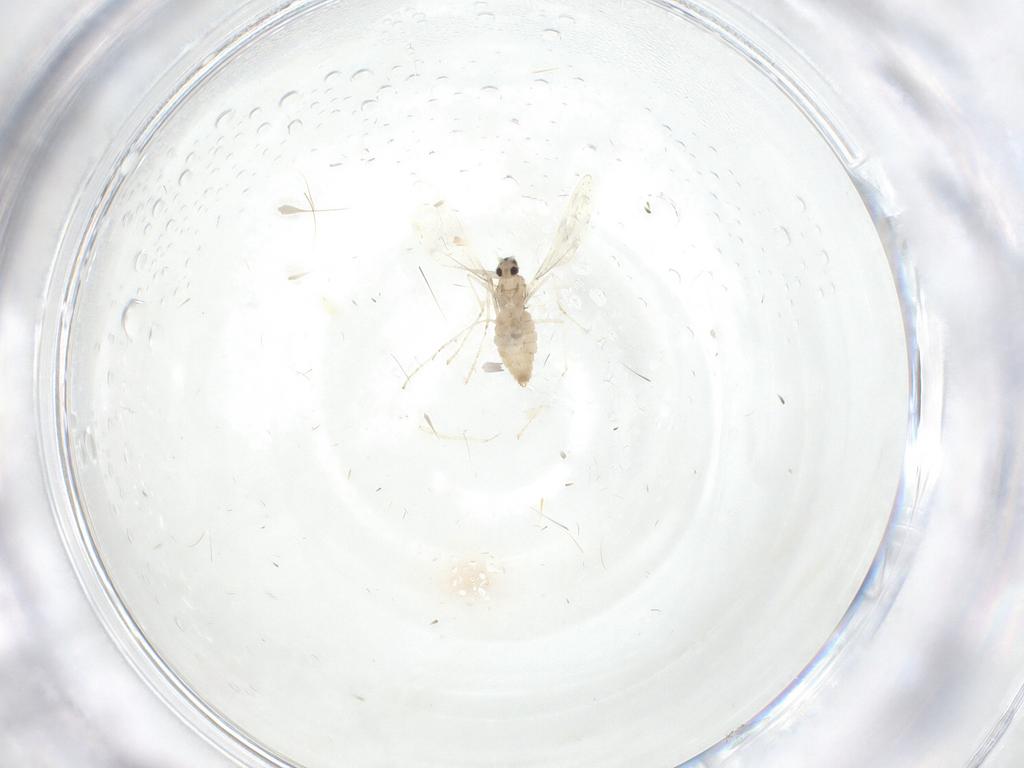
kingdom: Animalia
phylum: Arthropoda
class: Insecta
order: Diptera
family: Cecidomyiidae
